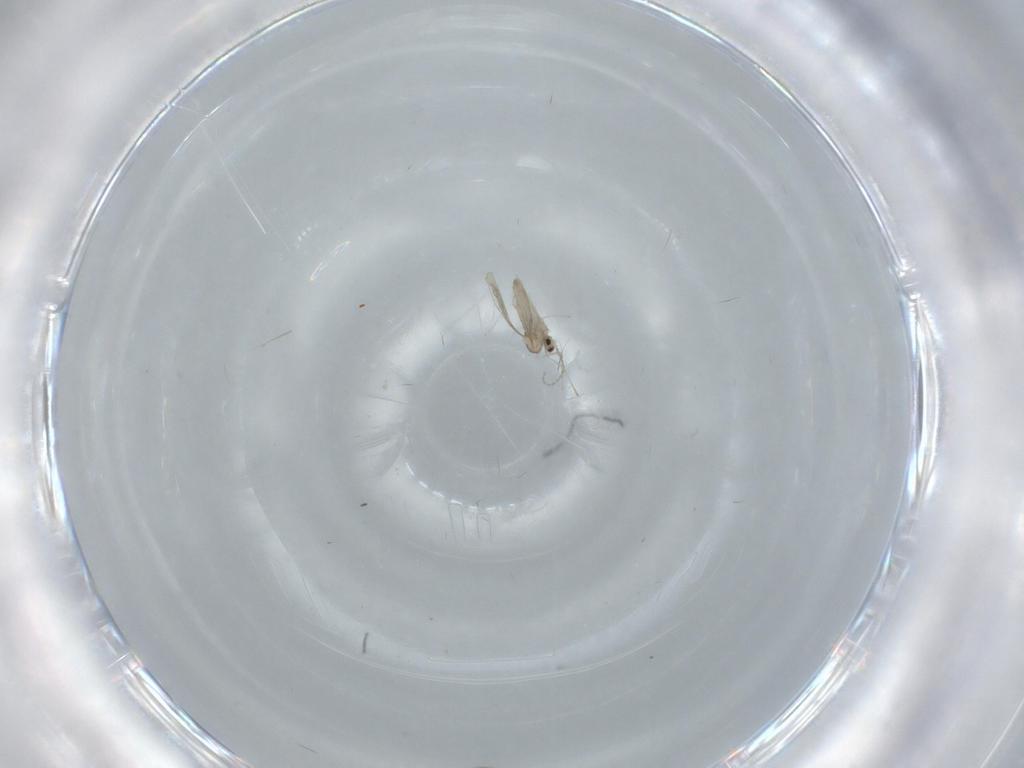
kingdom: Animalia
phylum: Arthropoda
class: Insecta
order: Diptera
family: Cecidomyiidae
